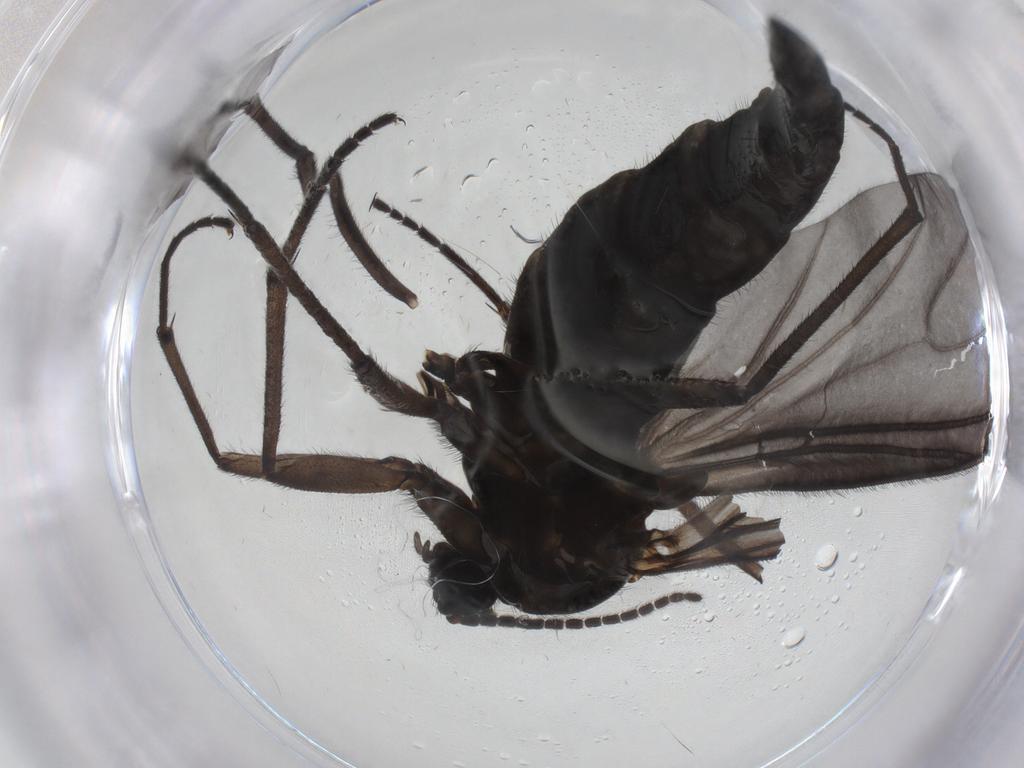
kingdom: Animalia
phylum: Arthropoda
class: Insecta
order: Diptera
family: Sciaridae
